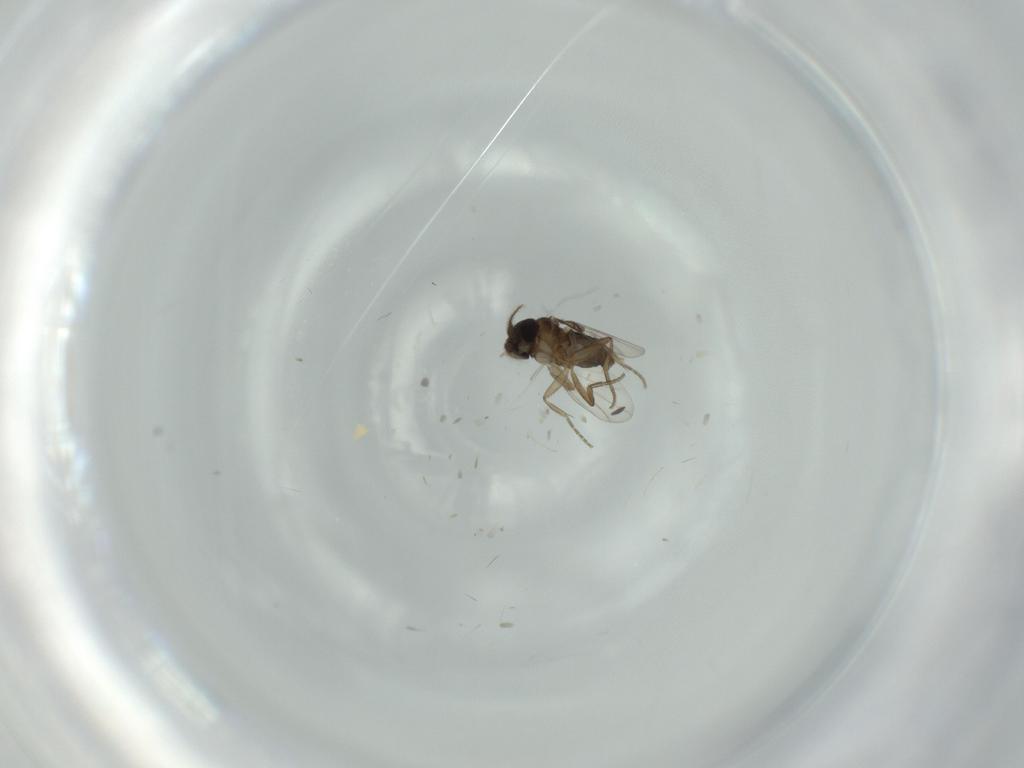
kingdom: Animalia
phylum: Arthropoda
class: Insecta
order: Diptera
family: Phoridae
